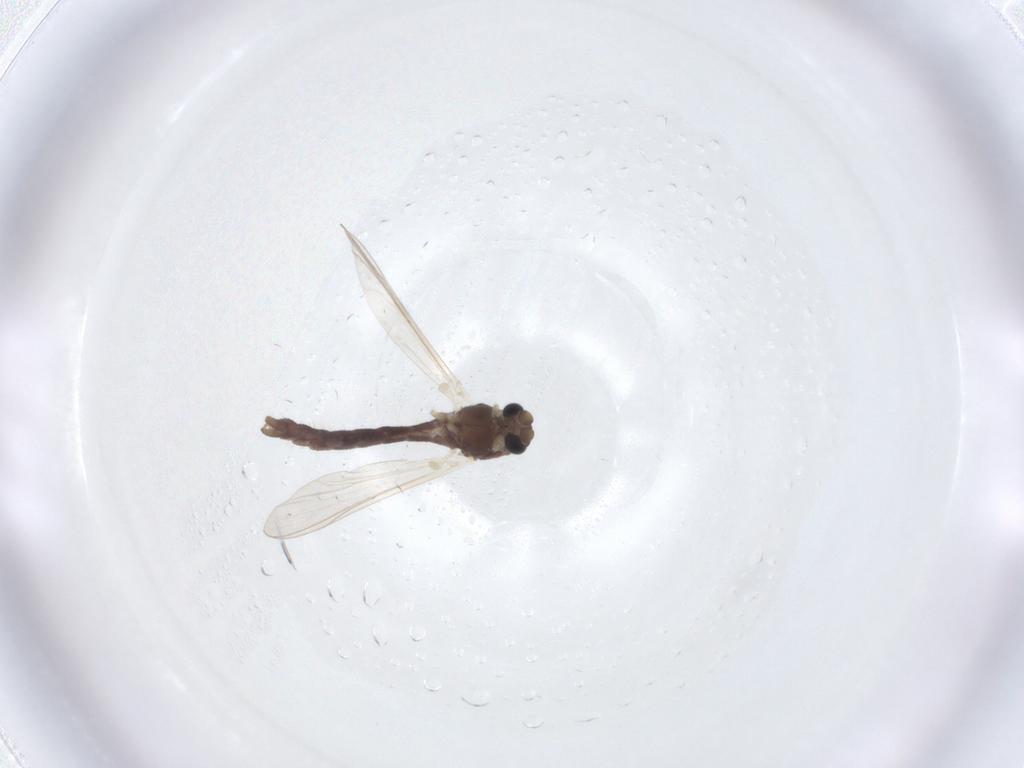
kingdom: Animalia
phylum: Arthropoda
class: Insecta
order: Diptera
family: Chironomidae
